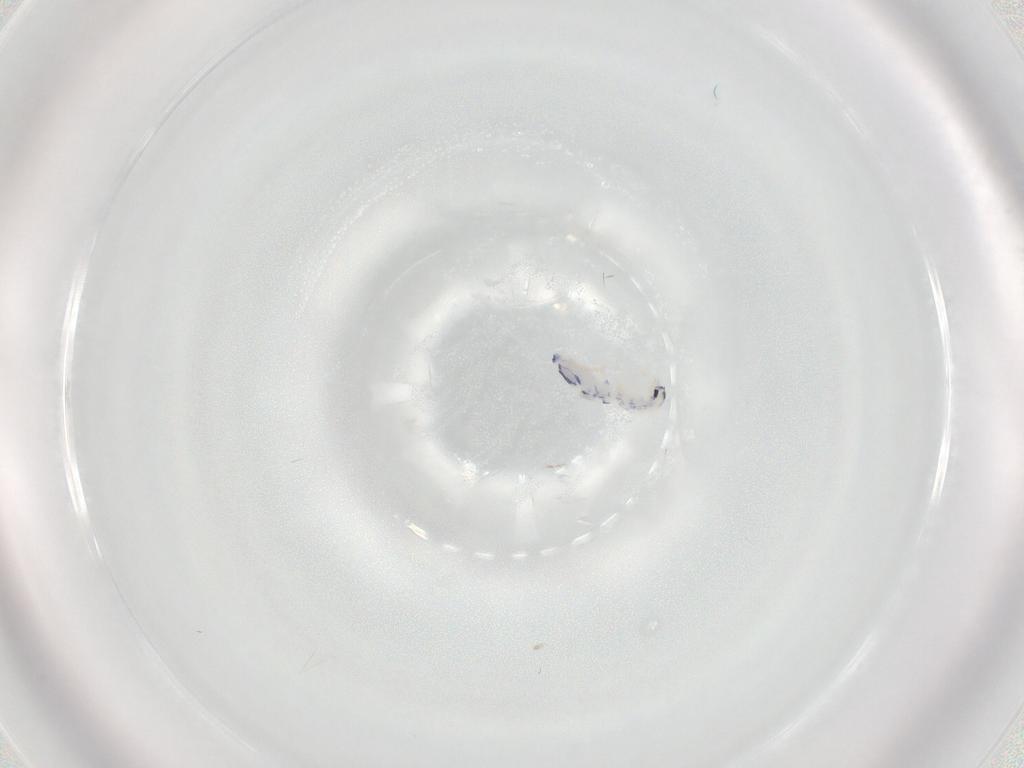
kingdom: Animalia
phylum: Arthropoda
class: Collembola
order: Entomobryomorpha
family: Entomobryidae
